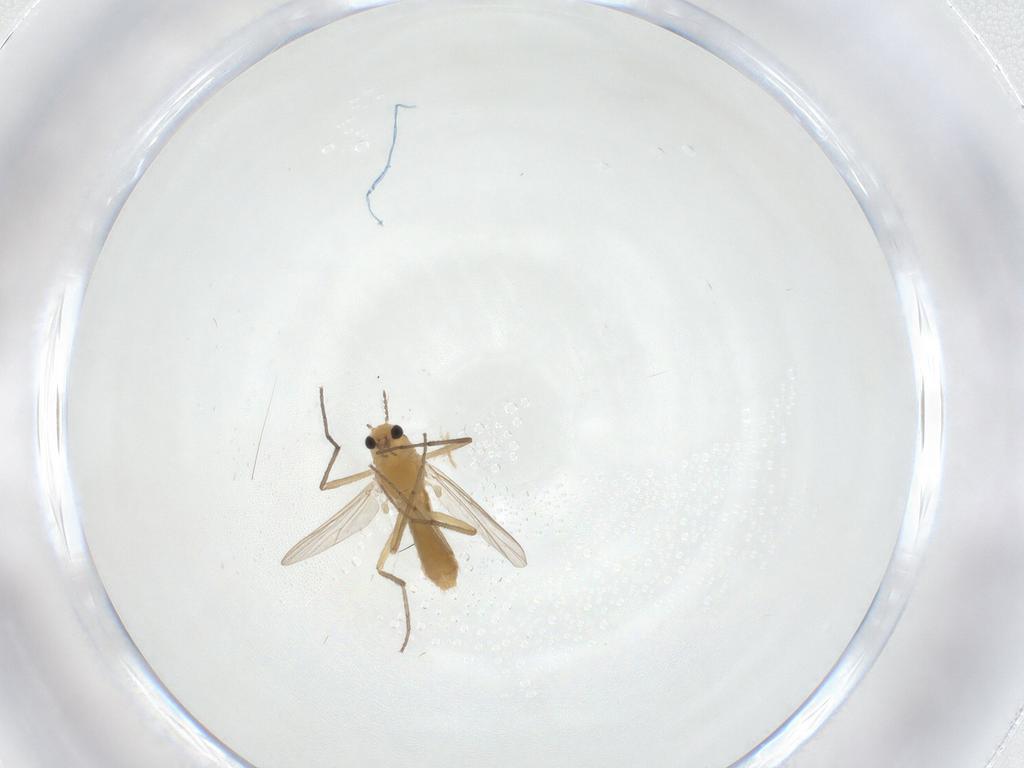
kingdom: Animalia
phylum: Arthropoda
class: Insecta
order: Diptera
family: Chironomidae
